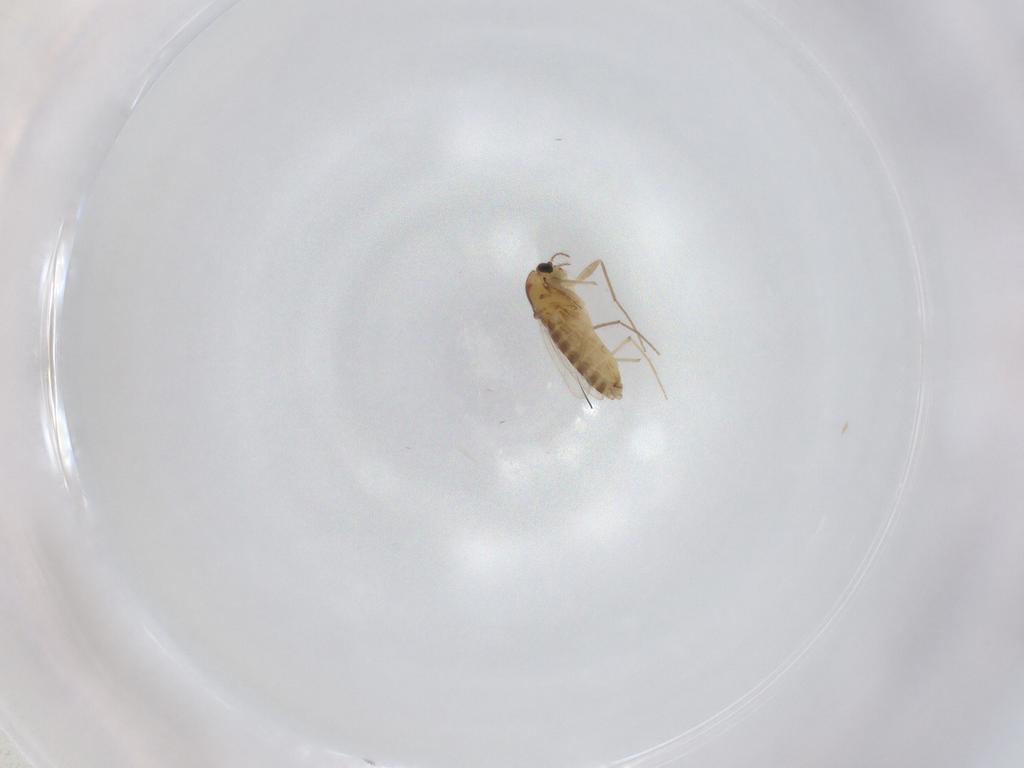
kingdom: Animalia
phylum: Arthropoda
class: Insecta
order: Diptera
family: Chironomidae
